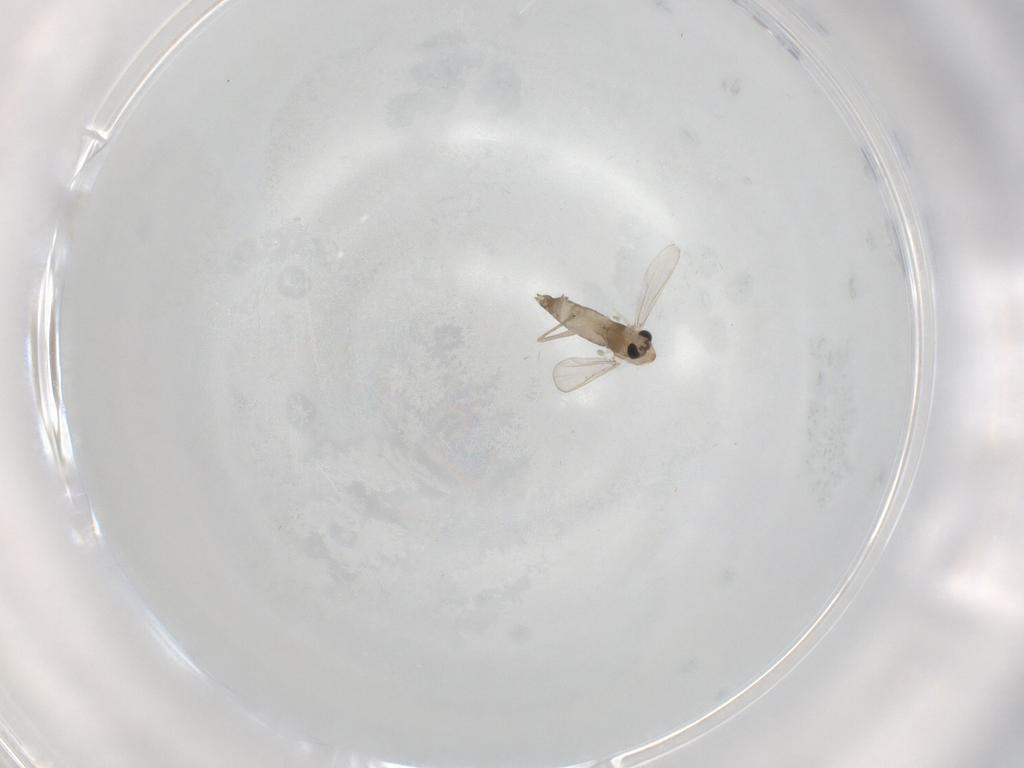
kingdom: Animalia
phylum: Arthropoda
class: Insecta
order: Diptera
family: Chironomidae
